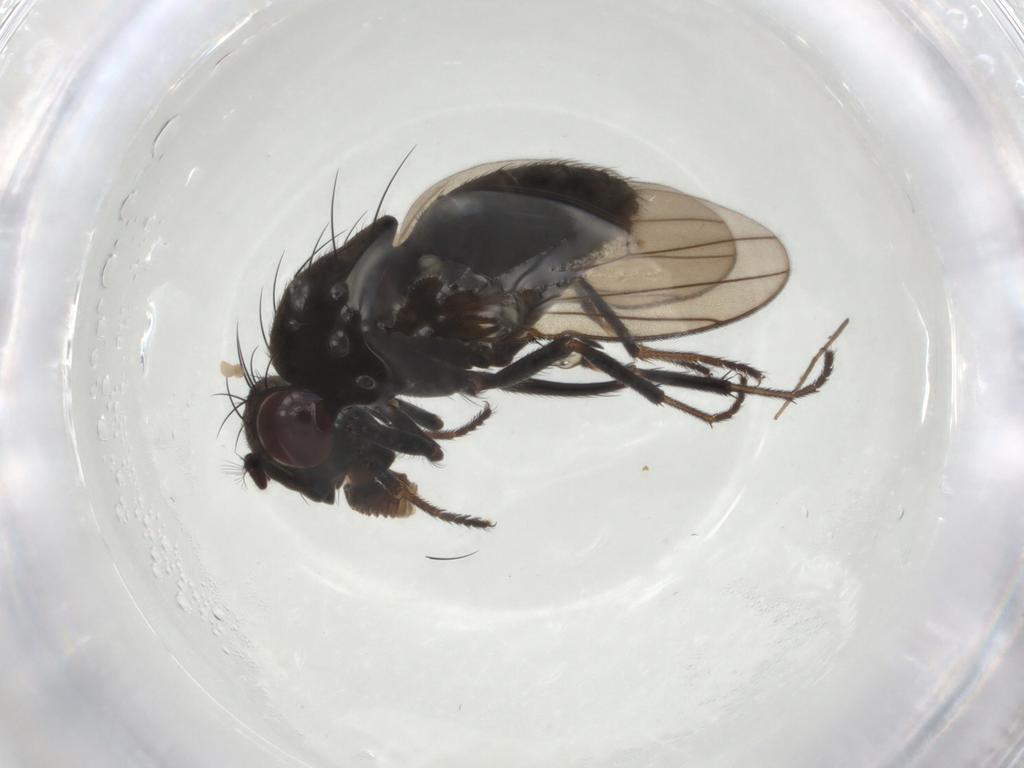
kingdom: Animalia
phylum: Arthropoda
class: Insecta
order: Diptera
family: Ephydridae
